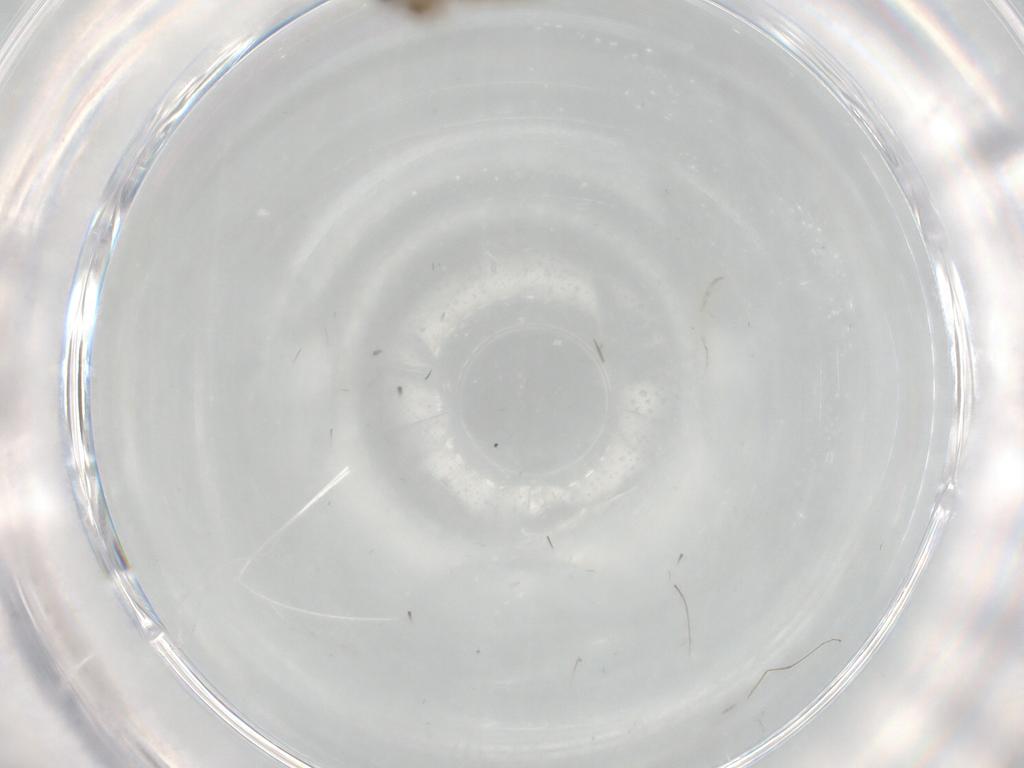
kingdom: Animalia
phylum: Arthropoda
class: Insecta
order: Diptera
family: Cecidomyiidae
